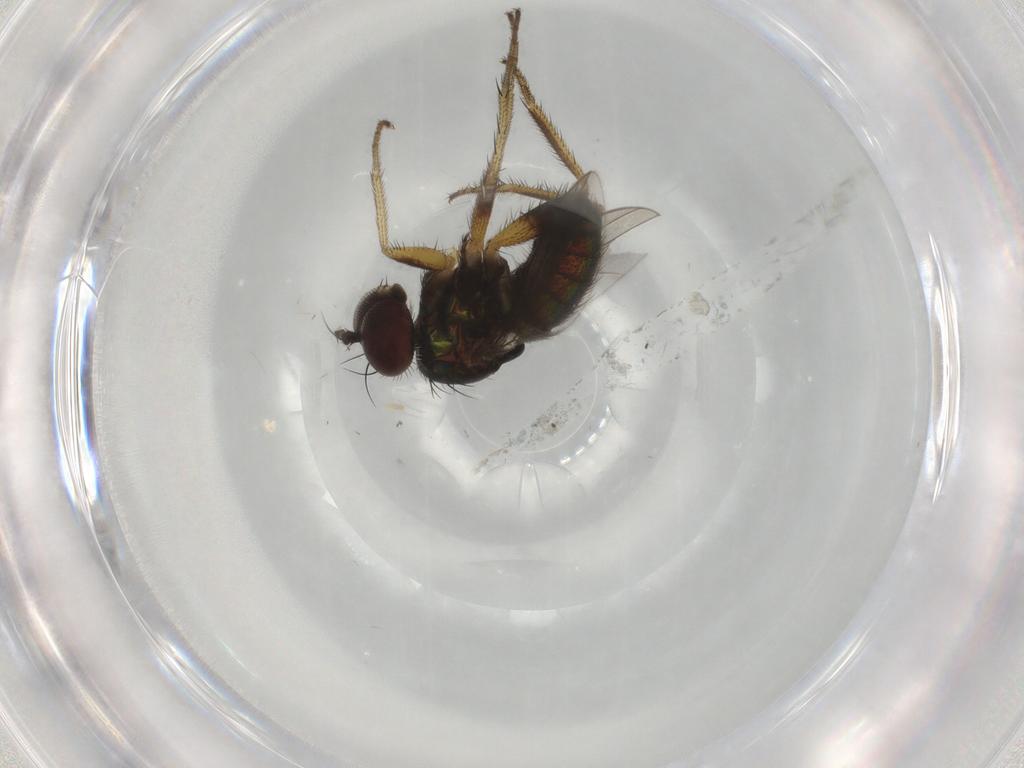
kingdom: Animalia
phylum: Arthropoda
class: Insecta
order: Diptera
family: Dolichopodidae
